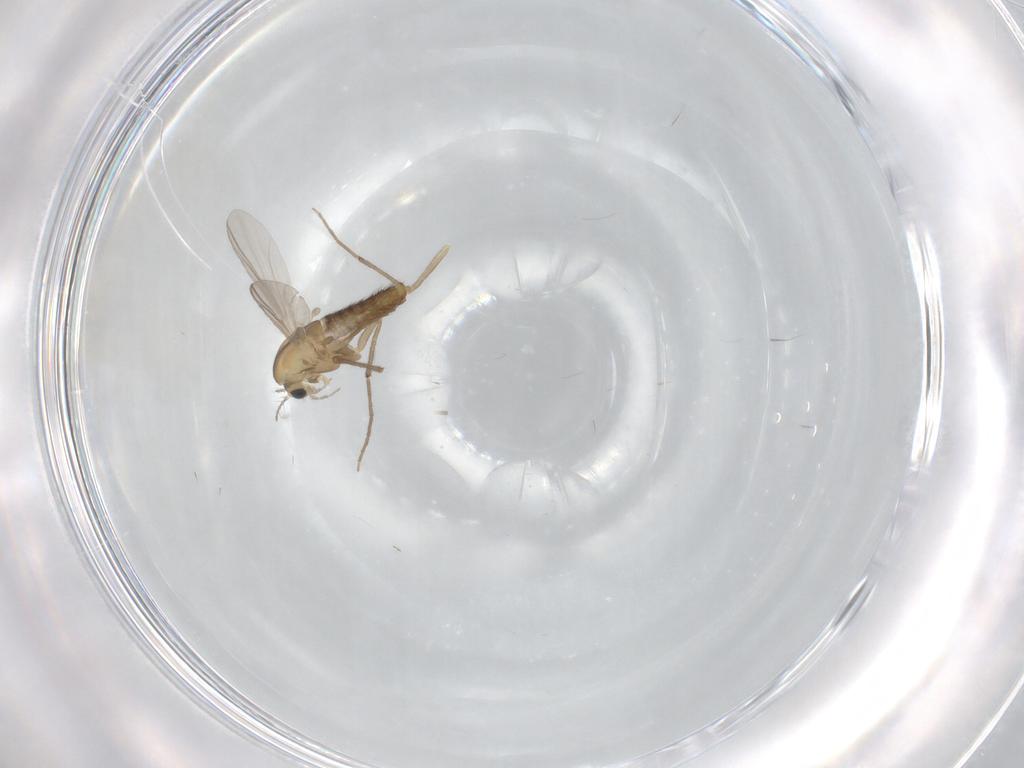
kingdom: Animalia
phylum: Arthropoda
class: Insecta
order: Diptera
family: Chironomidae
